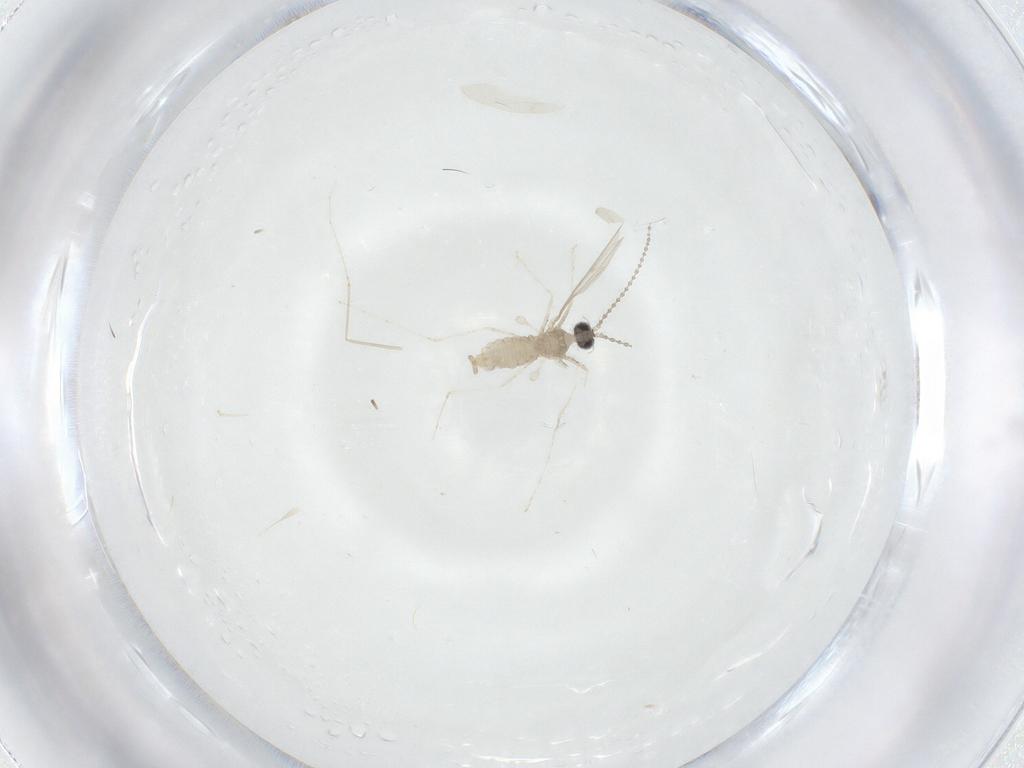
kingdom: Animalia
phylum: Arthropoda
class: Insecta
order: Diptera
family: Cecidomyiidae
